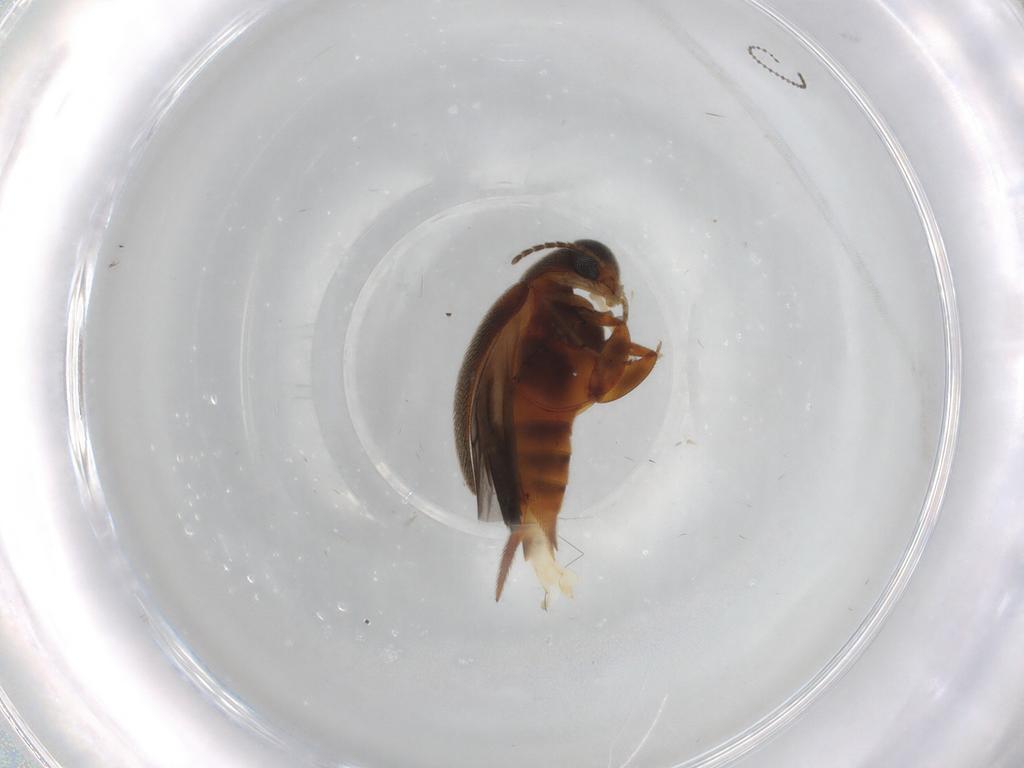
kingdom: Animalia
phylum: Arthropoda
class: Insecta
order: Coleoptera
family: Mordellidae
